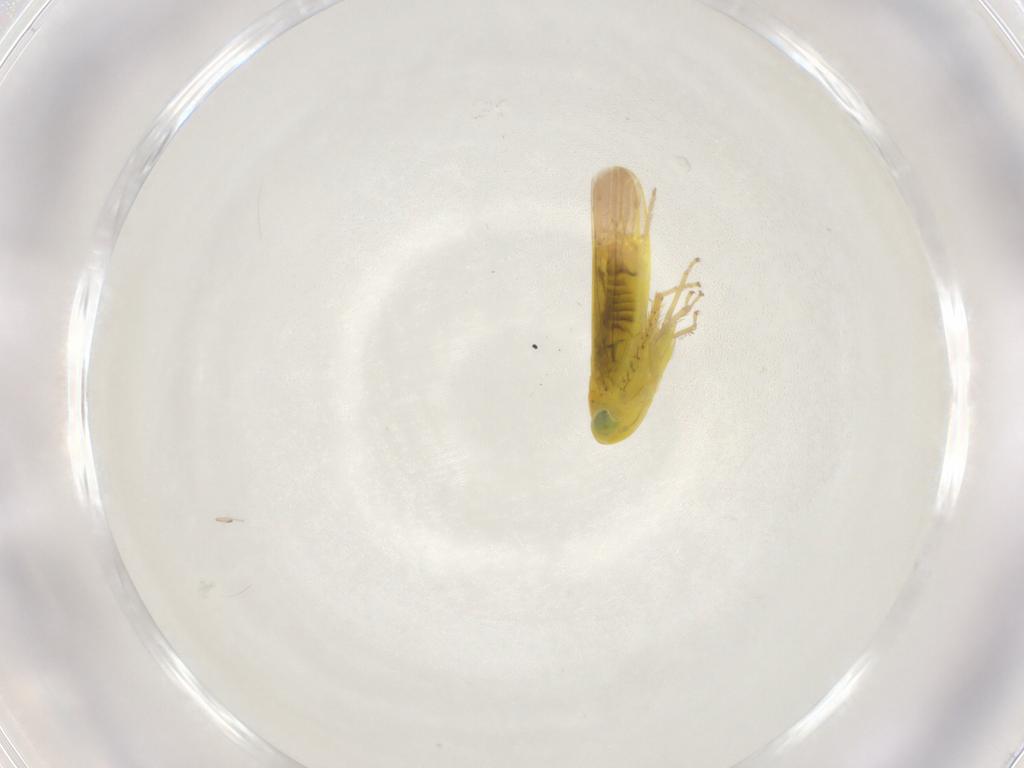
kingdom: Animalia
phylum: Arthropoda
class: Insecta
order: Hemiptera
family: Cicadellidae
